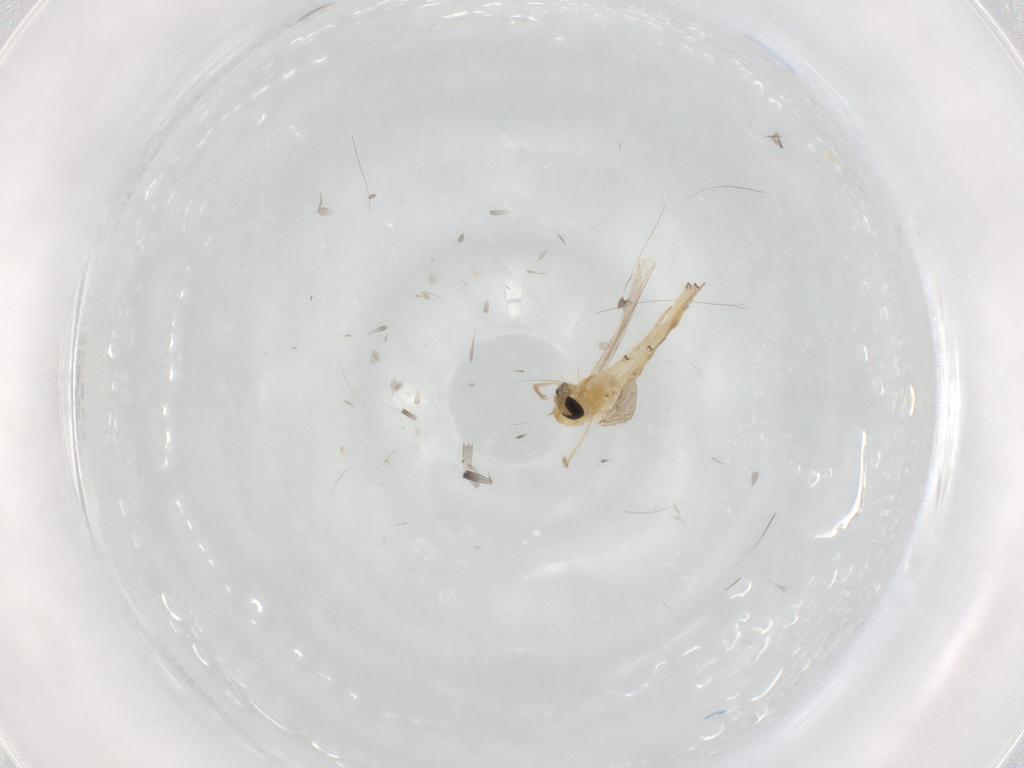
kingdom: Animalia
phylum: Arthropoda
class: Insecta
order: Diptera
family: Chironomidae
